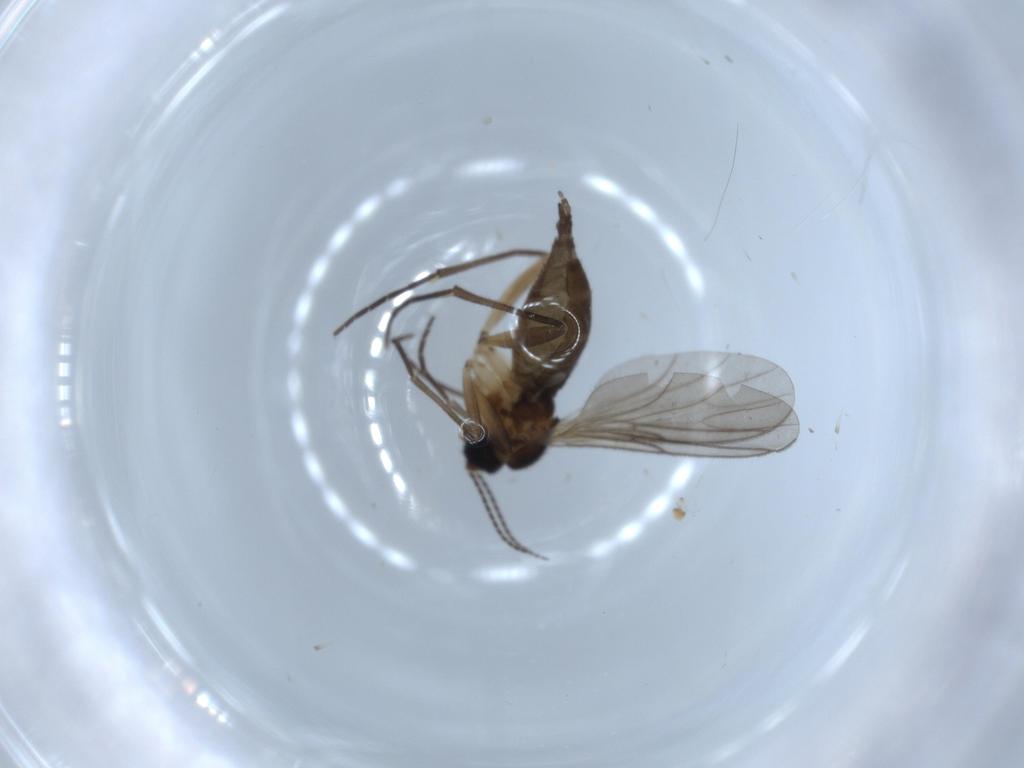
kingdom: Animalia
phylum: Arthropoda
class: Insecta
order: Diptera
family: Sciaridae
